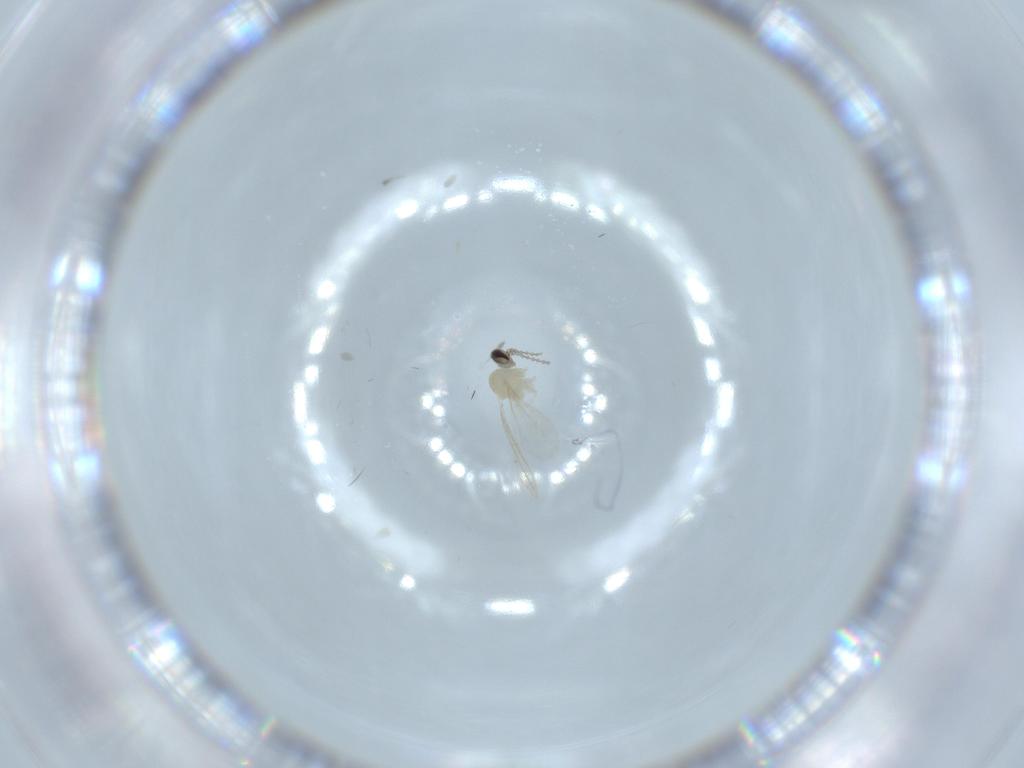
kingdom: Animalia
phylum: Arthropoda
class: Insecta
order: Diptera
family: Cecidomyiidae
